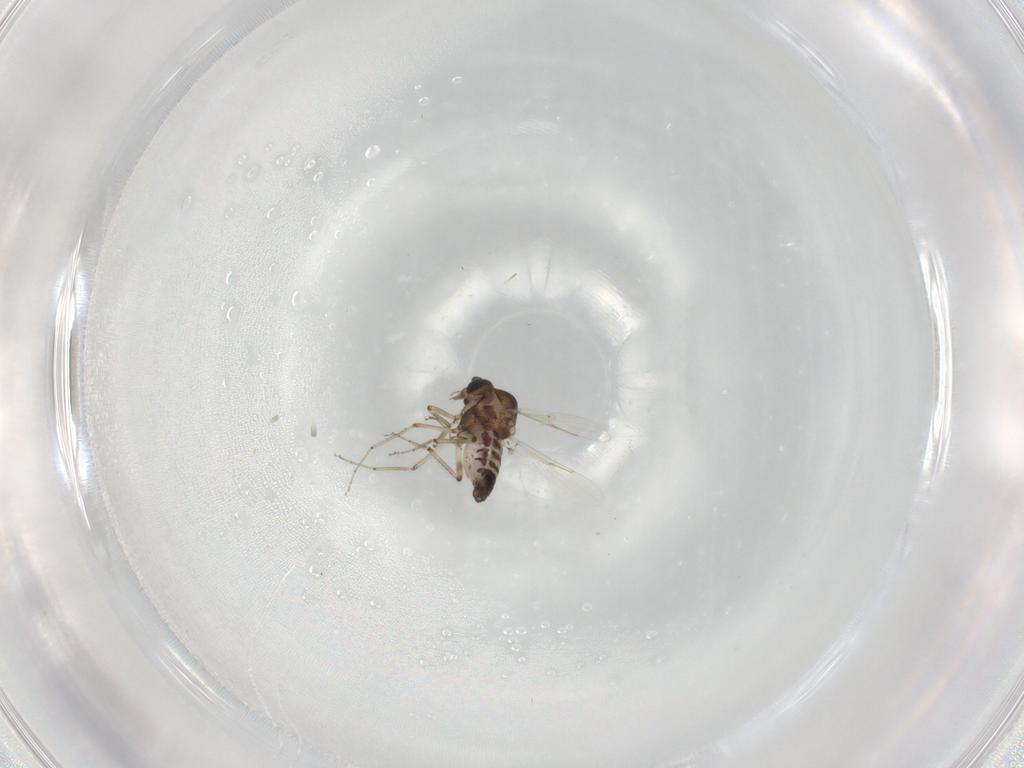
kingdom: Animalia
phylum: Arthropoda
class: Insecta
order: Diptera
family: Ceratopogonidae
